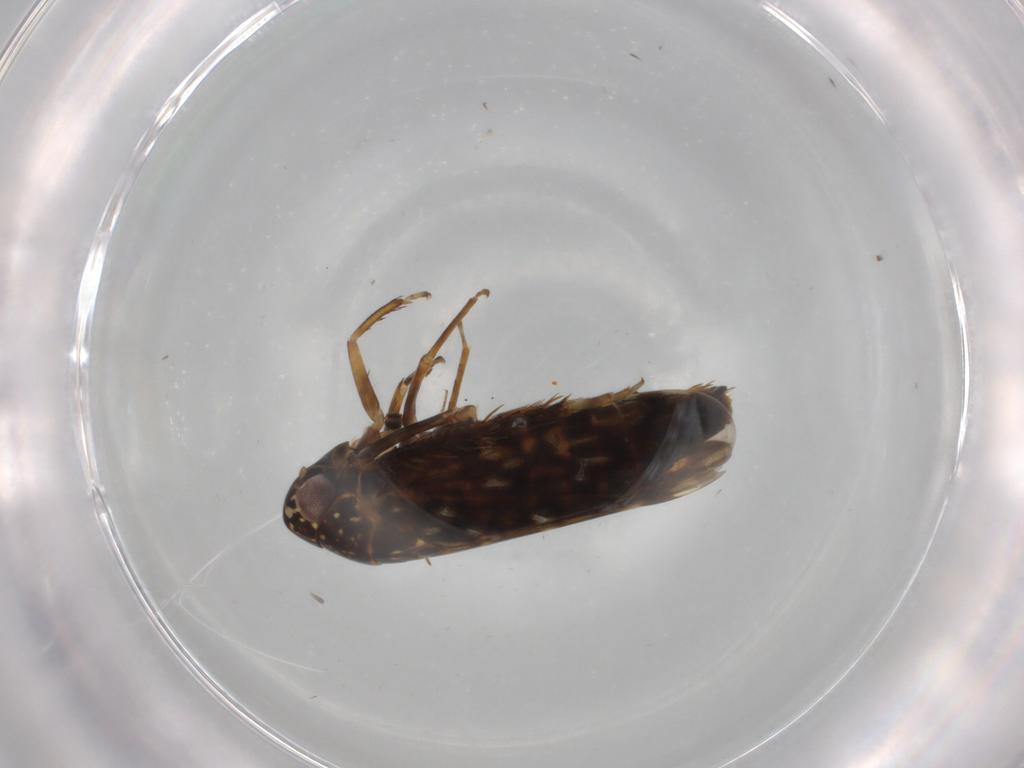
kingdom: Animalia
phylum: Arthropoda
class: Insecta
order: Hemiptera
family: Cicadellidae
